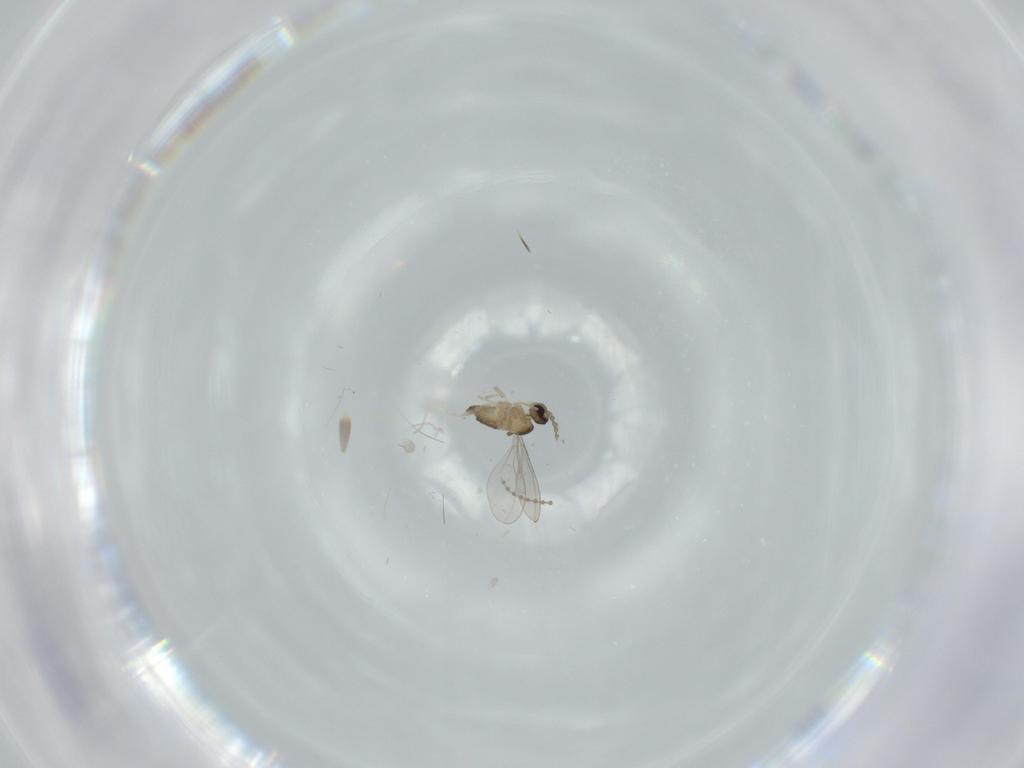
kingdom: Animalia
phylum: Arthropoda
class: Insecta
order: Diptera
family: Cecidomyiidae
